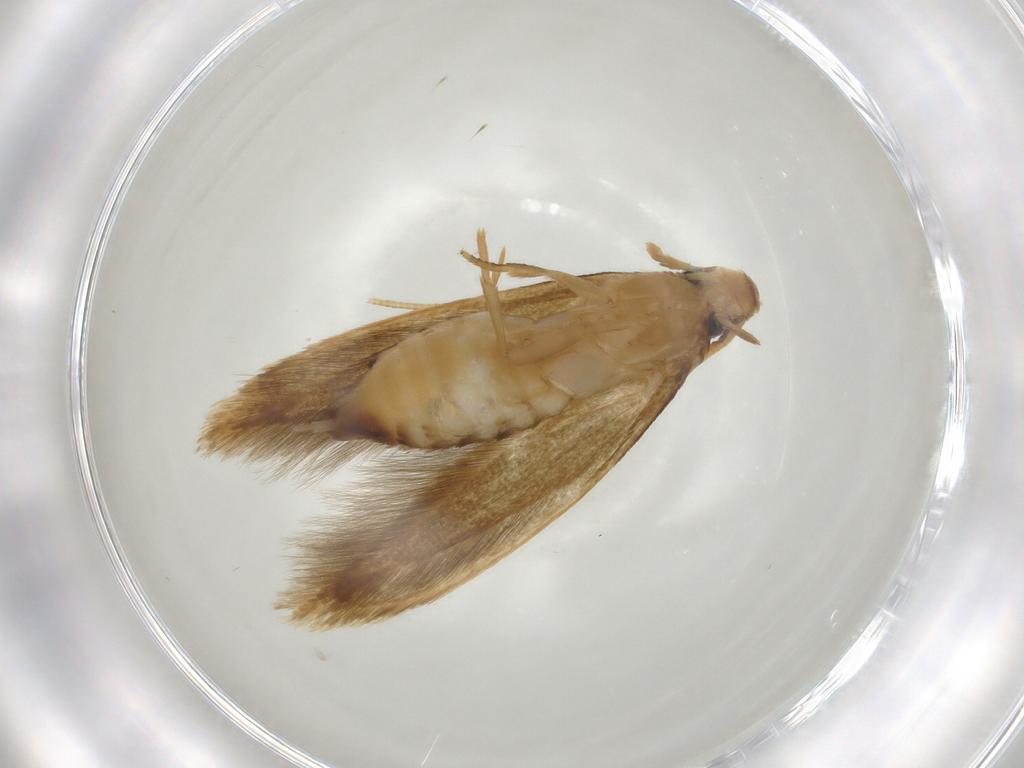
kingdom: Animalia
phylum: Arthropoda
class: Insecta
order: Lepidoptera
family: Tineidae
